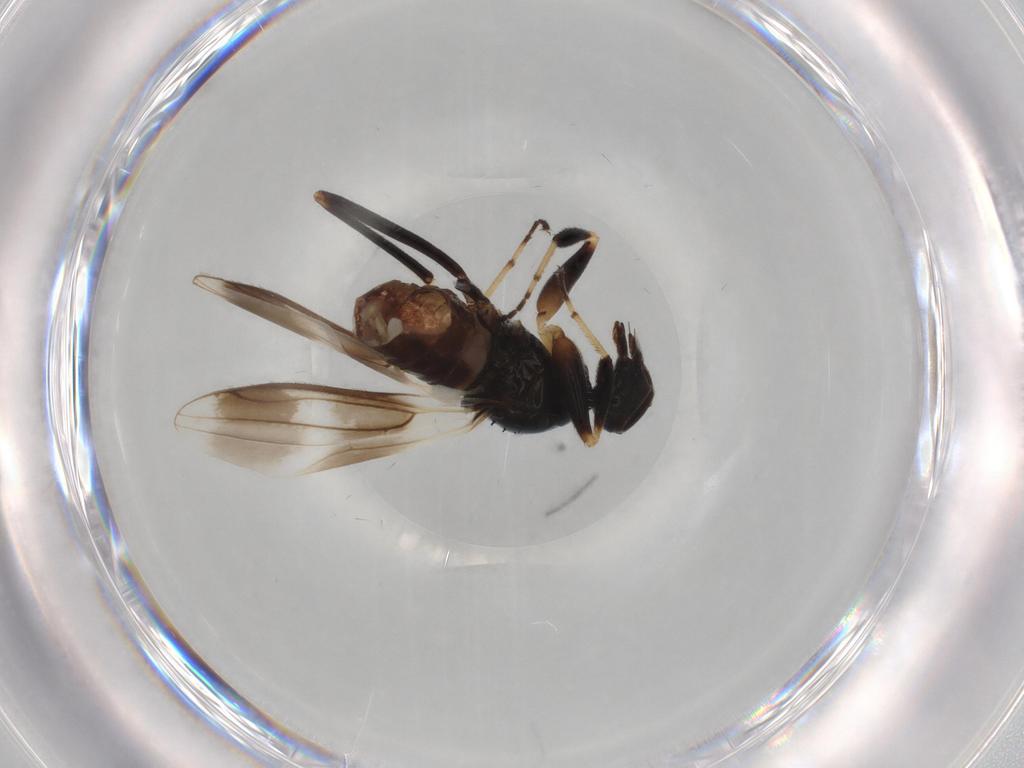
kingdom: Animalia
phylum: Arthropoda
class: Insecta
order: Diptera
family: Hybotidae
